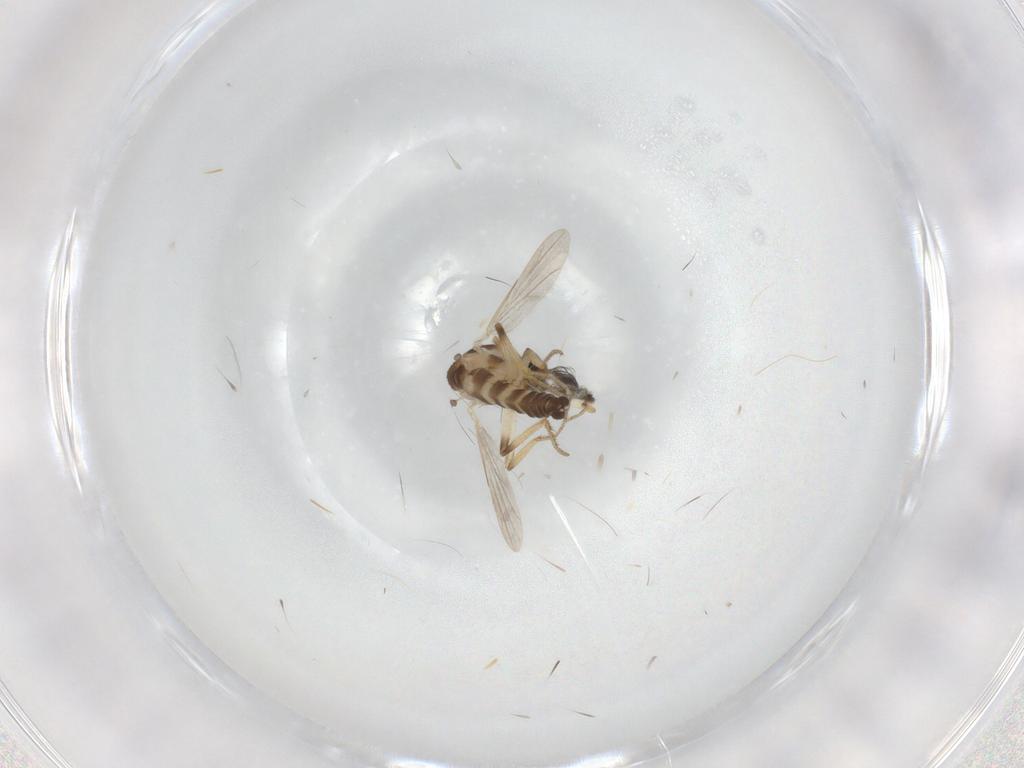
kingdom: Animalia
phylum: Arthropoda
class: Insecta
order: Diptera
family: Ceratopogonidae
